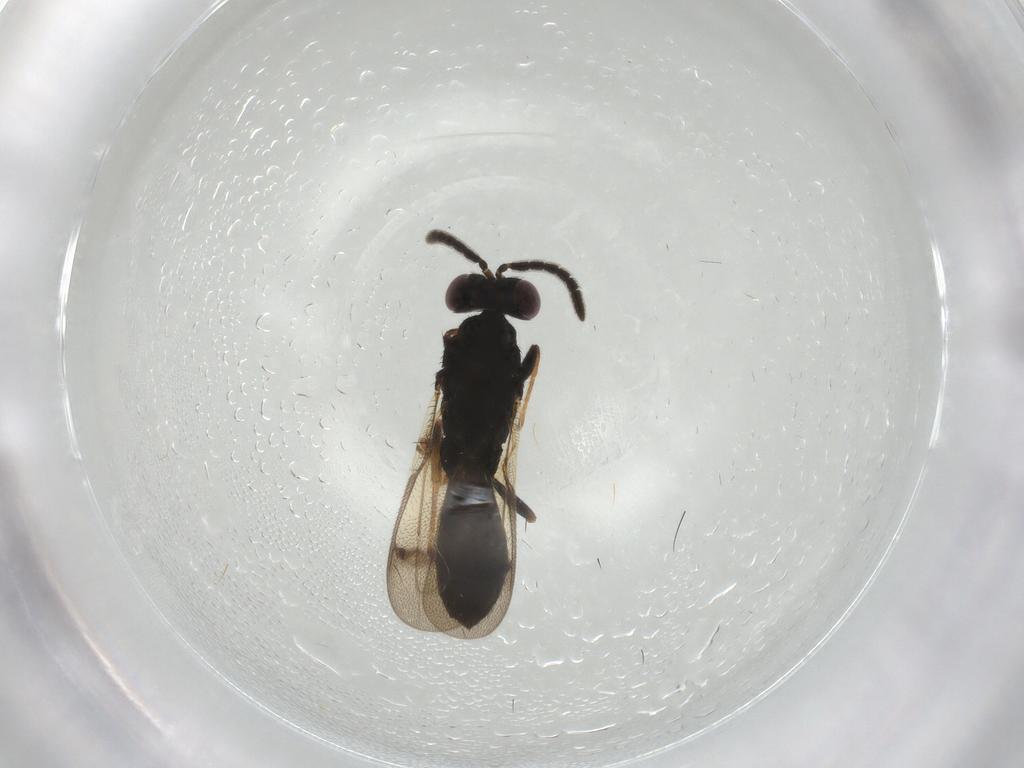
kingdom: Animalia
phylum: Arthropoda
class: Insecta
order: Hymenoptera
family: Pteromalidae
